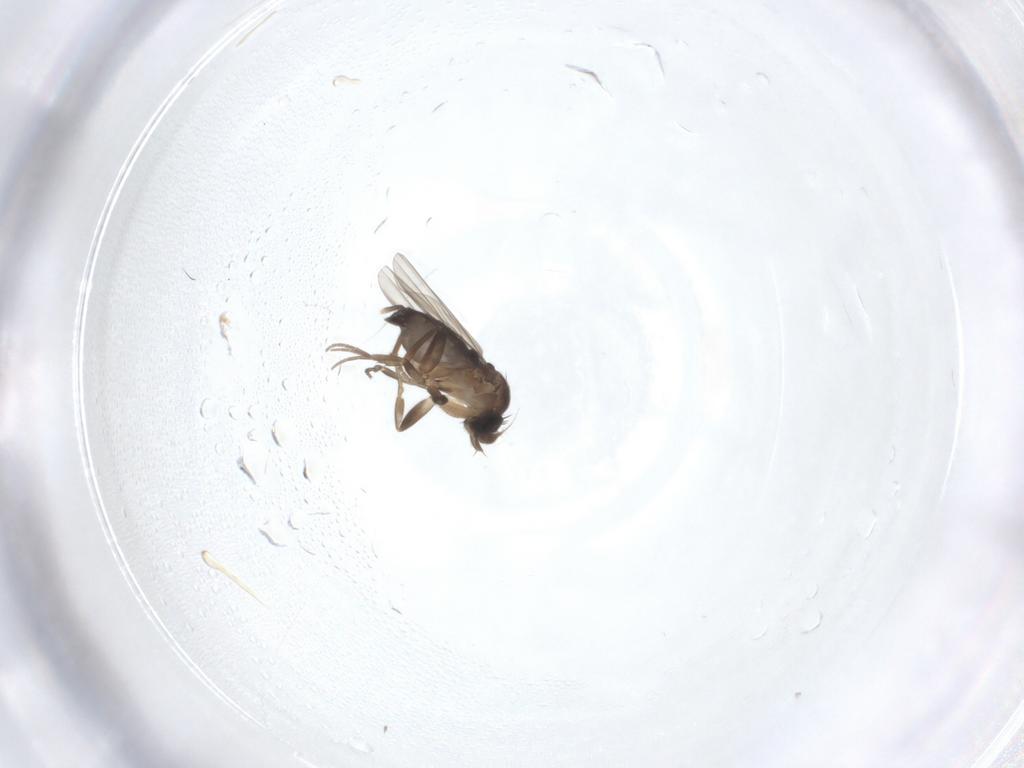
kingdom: Animalia
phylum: Arthropoda
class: Insecta
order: Diptera
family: Phoridae
